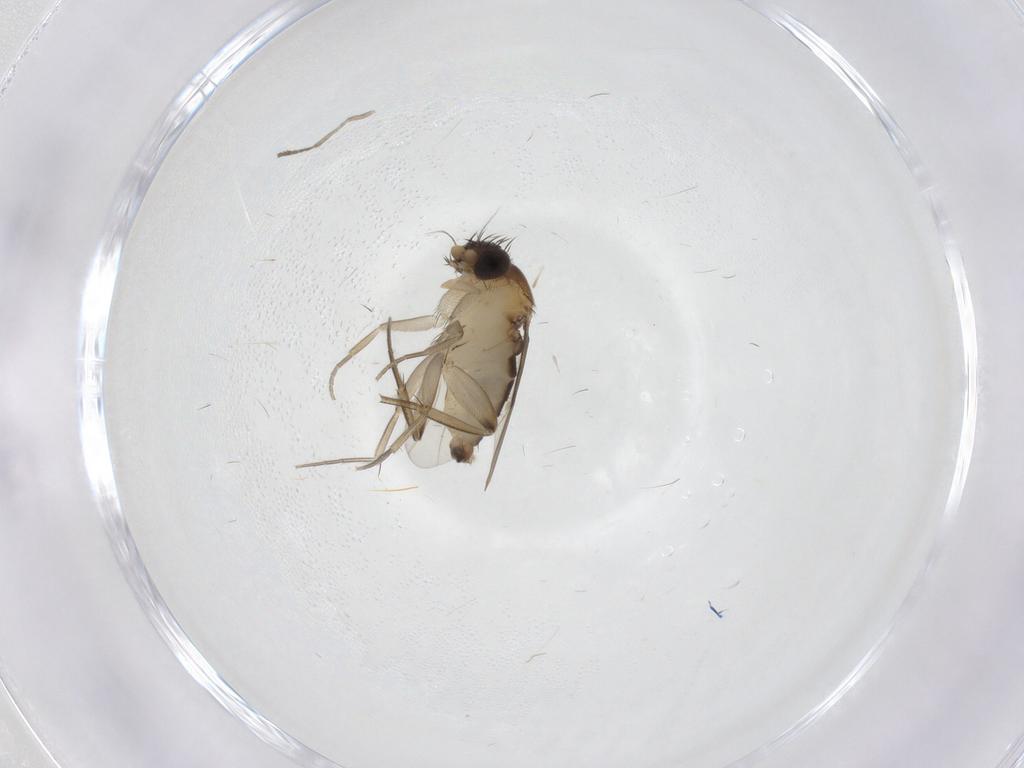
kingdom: Animalia
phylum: Arthropoda
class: Insecta
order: Diptera
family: Phoridae
